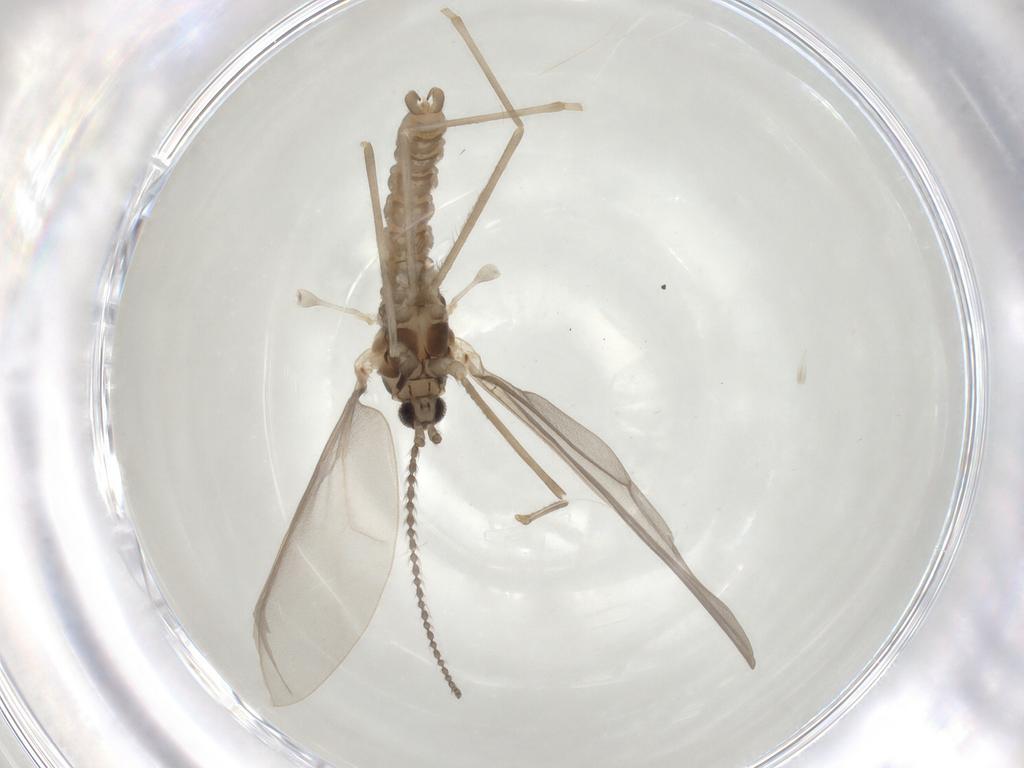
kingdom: Animalia
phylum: Arthropoda
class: Insecta
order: Diptera
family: Cecidomyiidae
